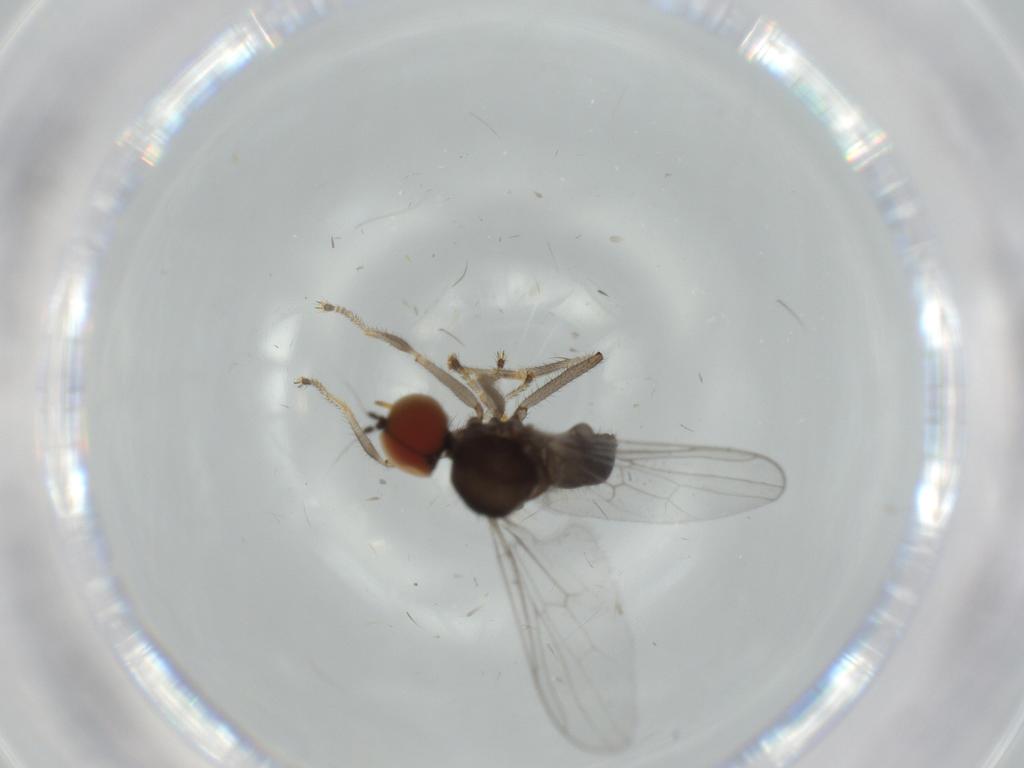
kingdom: Animalia
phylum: Arthropoda
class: Insecta
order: Diptera
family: Hybotidae
